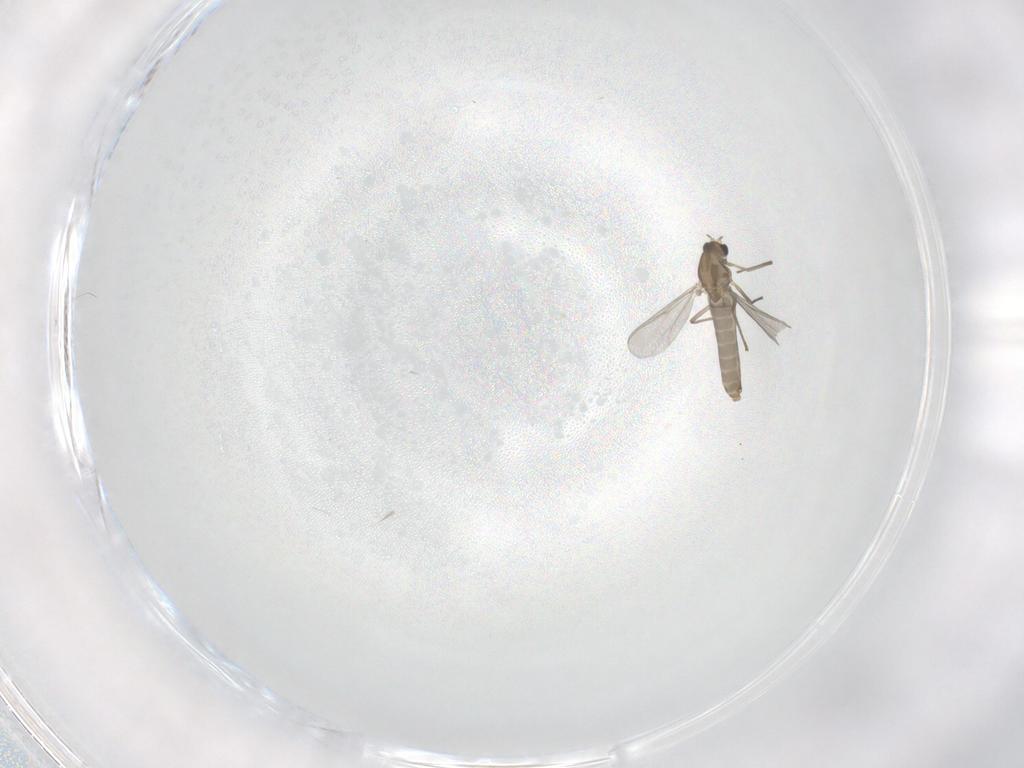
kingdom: Animalia
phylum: Arthropoda
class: Insecta
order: Diptera
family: Chironomidae
